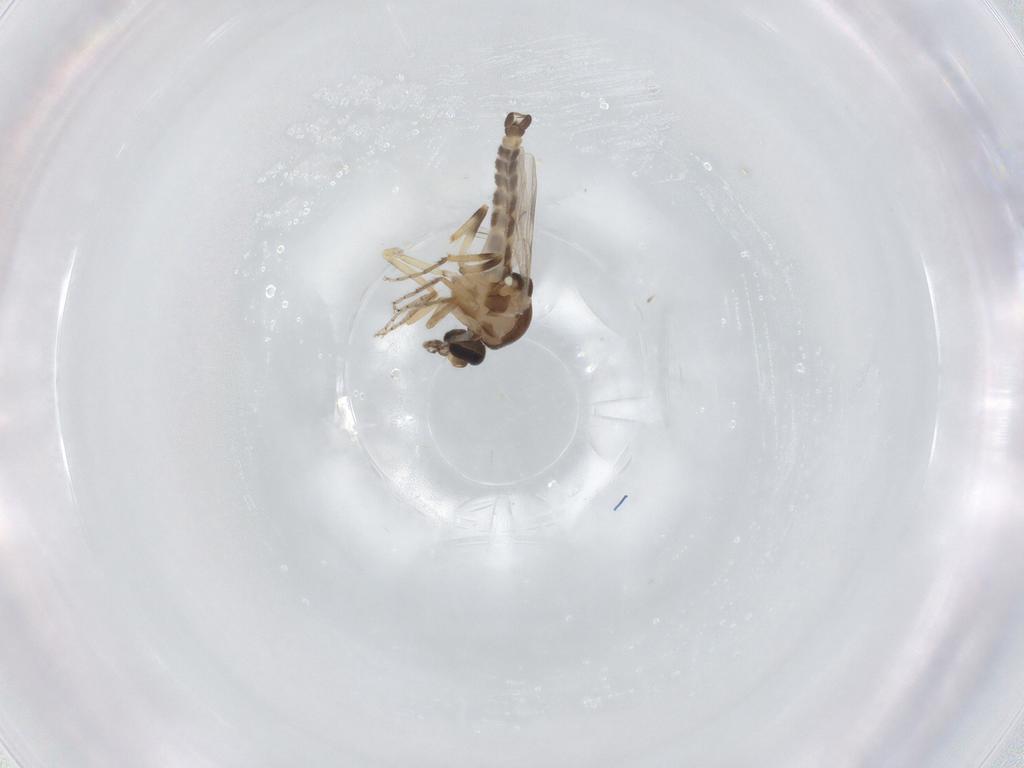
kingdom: Animalia
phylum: Arthropoda
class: Insecta
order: Diptera
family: Ceratopogonidae
